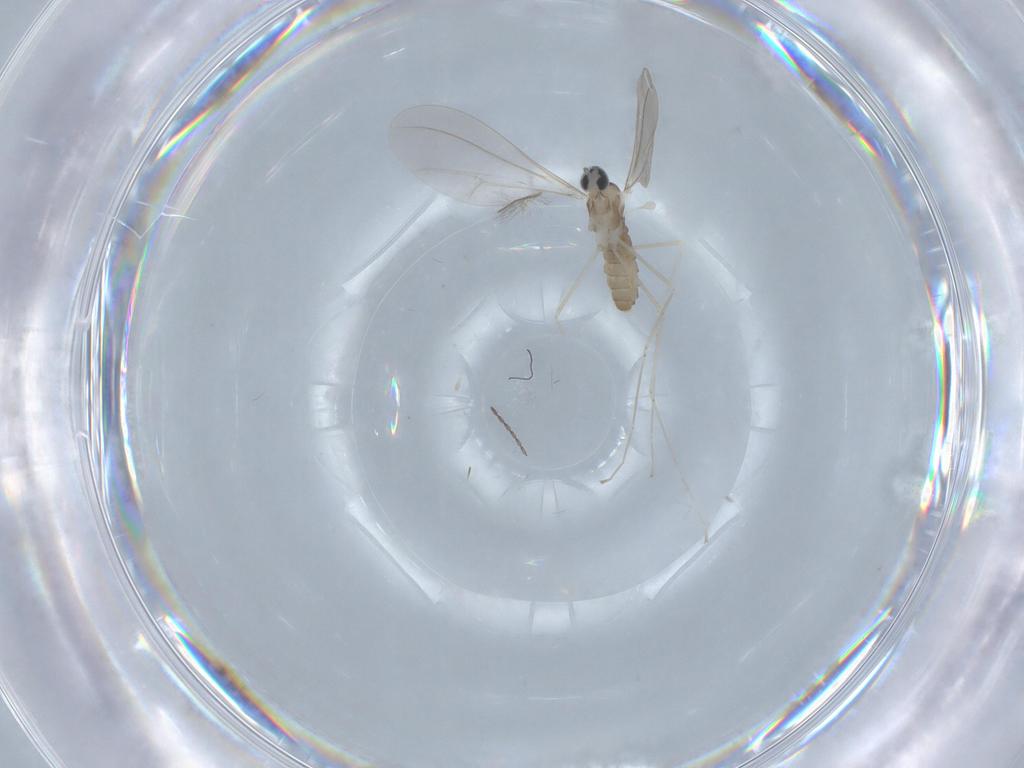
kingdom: Animalia
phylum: Arthropoda
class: Insecta
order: Diptera
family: Cecidomyiidae
